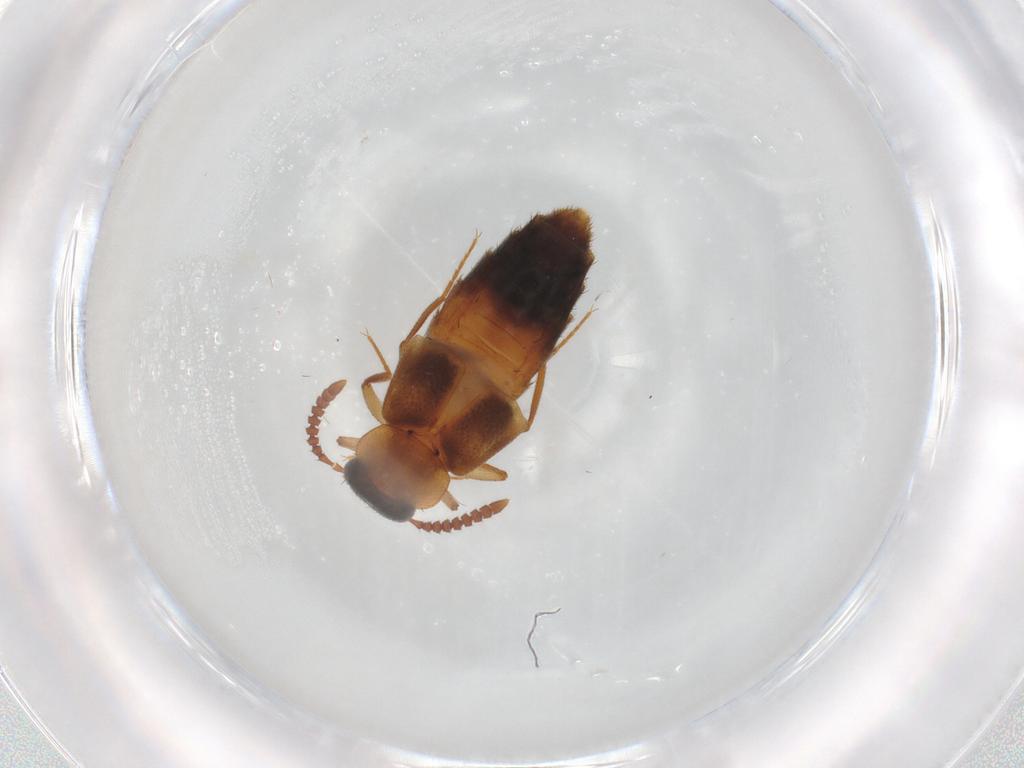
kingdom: Animalia
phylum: Arthropoda
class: Insecta
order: Coleoptera
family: Staphylinidae
